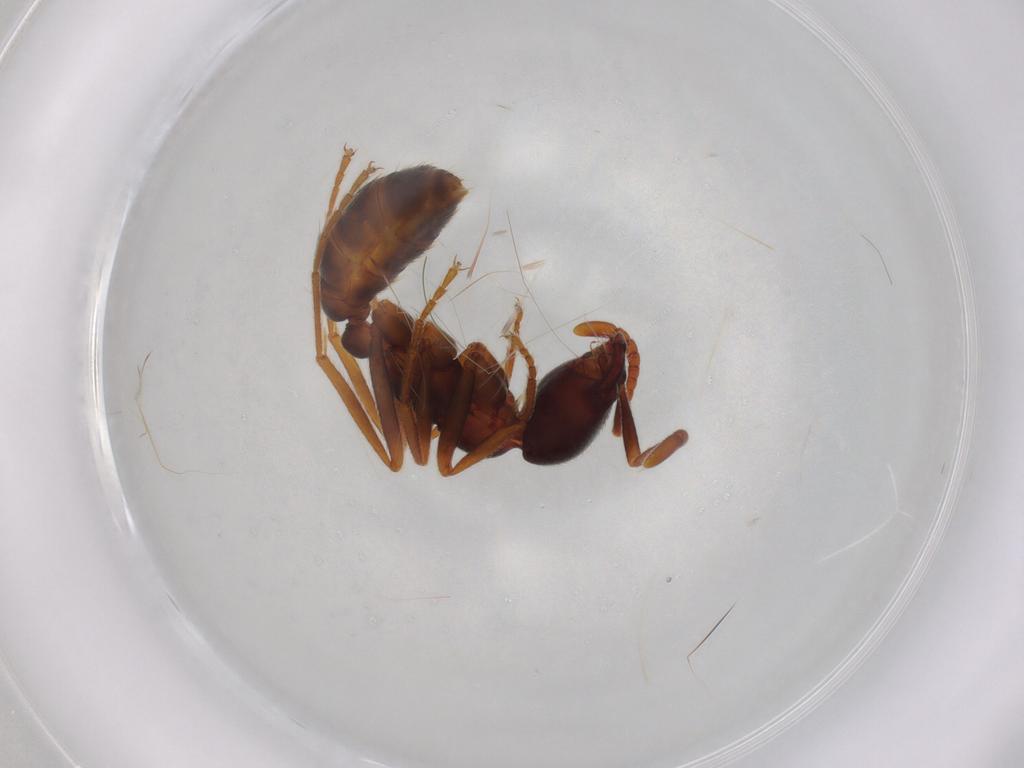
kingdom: Animalia
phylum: Arthropoda
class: Insecta
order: Hymenoptera
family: Formicidae
